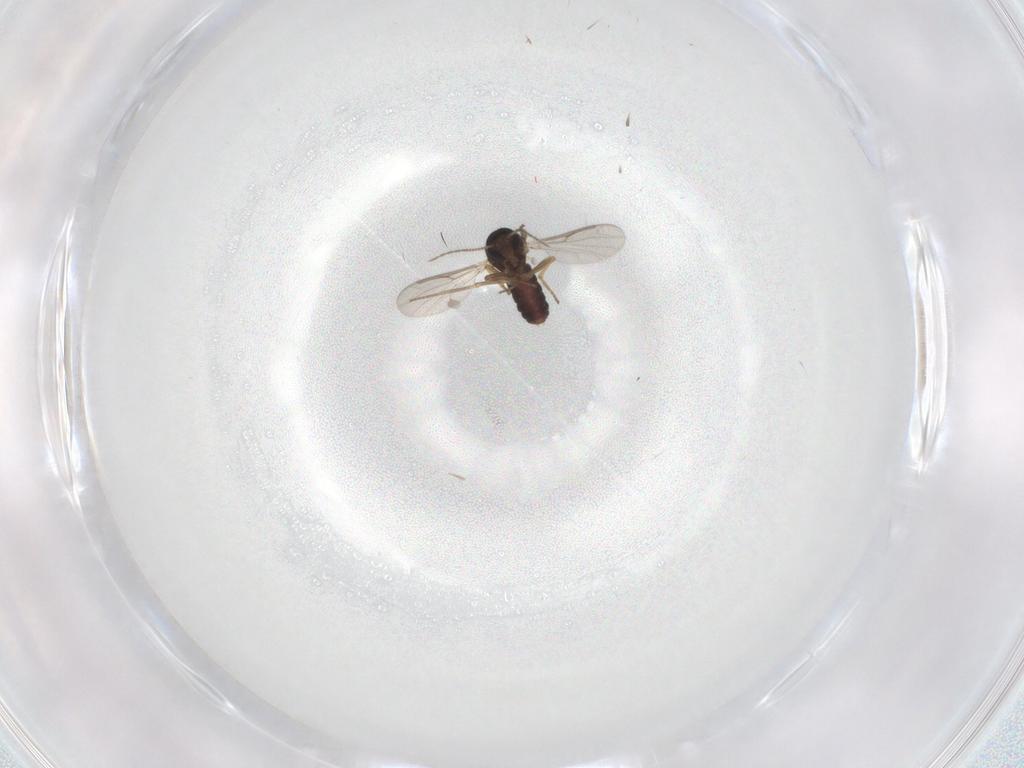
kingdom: Animalia
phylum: Arthropoda
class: Insecta
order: Diptera
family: Ceratopogonidae
